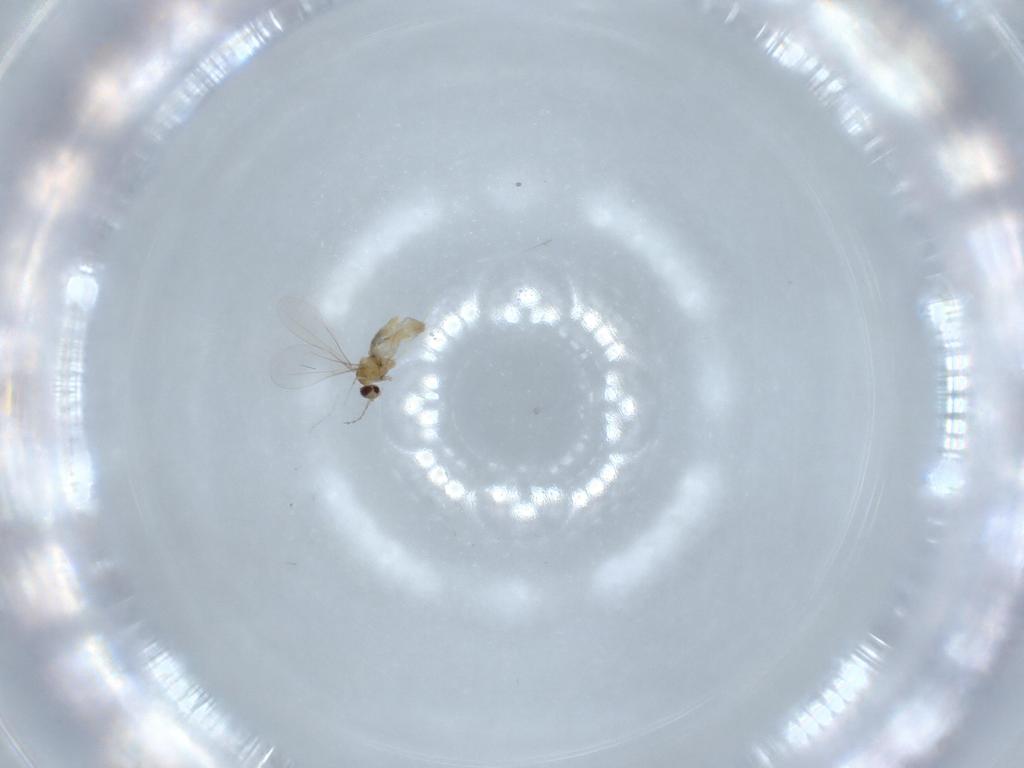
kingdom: Animalia
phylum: Arthropoda
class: Insecta
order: Diptera
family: Cecidomyiidae
